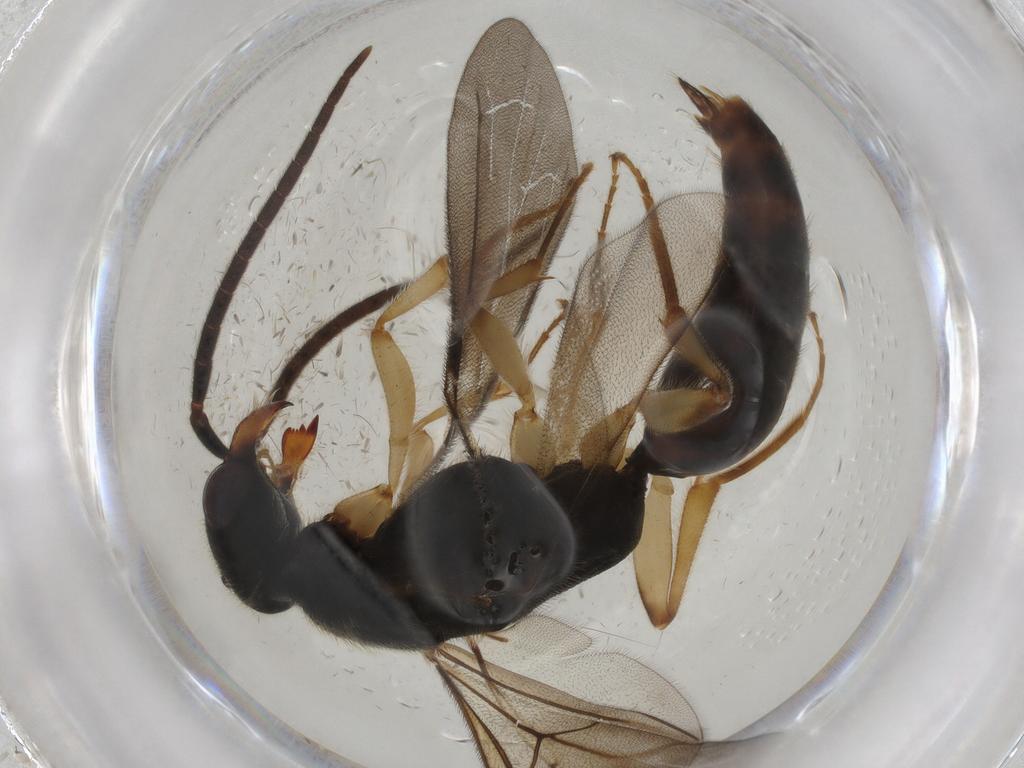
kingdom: Animalia
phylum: Arthropoda
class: Insecta
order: Hymenoptera
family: Bethylidae
